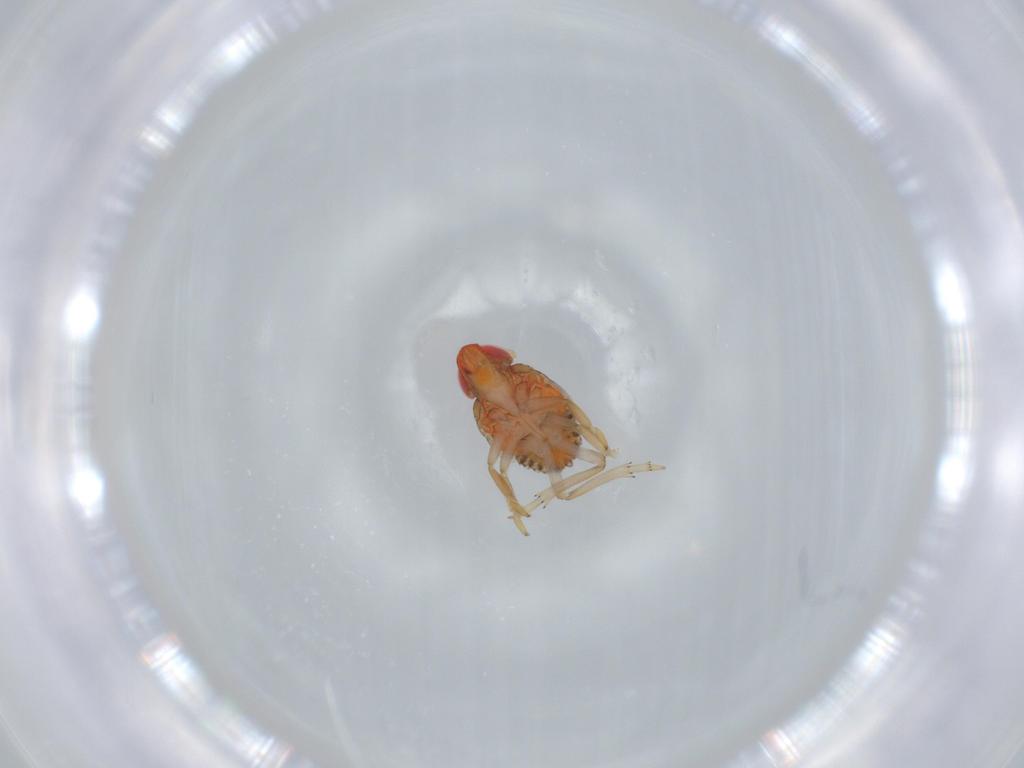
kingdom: Animalia
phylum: Arthropoda
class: Insecta
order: Hemiptera
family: Fulgoroidea_incertae_sedis
